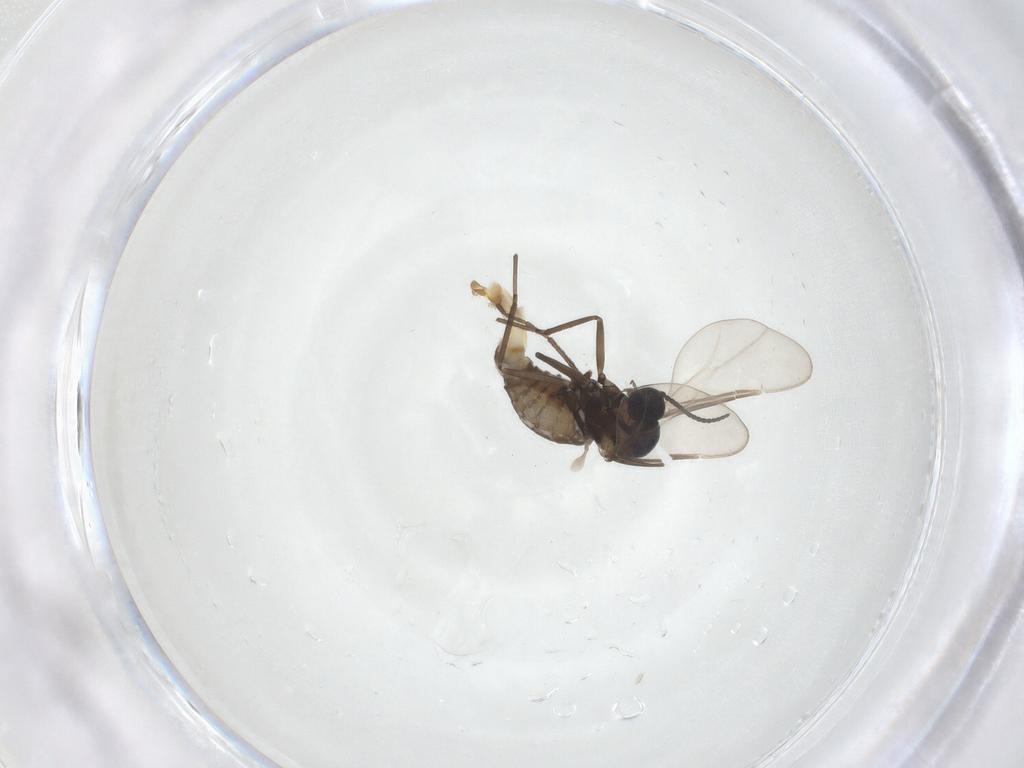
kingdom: Animalia
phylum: Arthropoda
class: Insecta
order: Diptera
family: Cecidomyiidae
